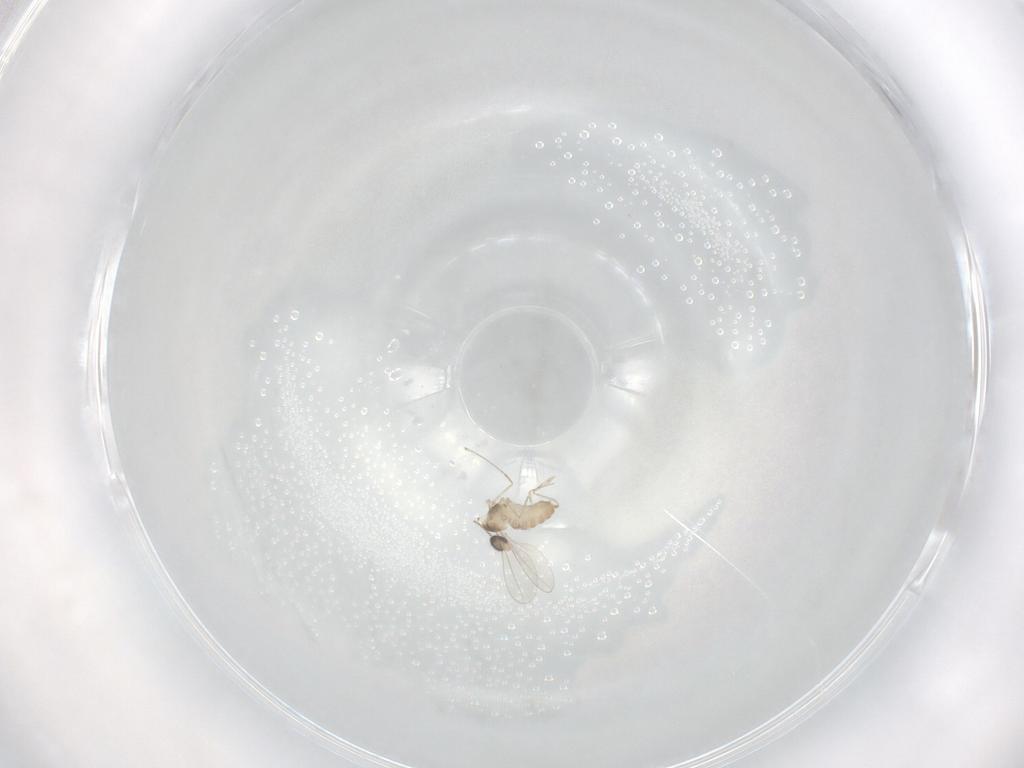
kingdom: Animalia
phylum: Arthropoda
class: Insecta
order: Diptera
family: Cecidomyiidae
